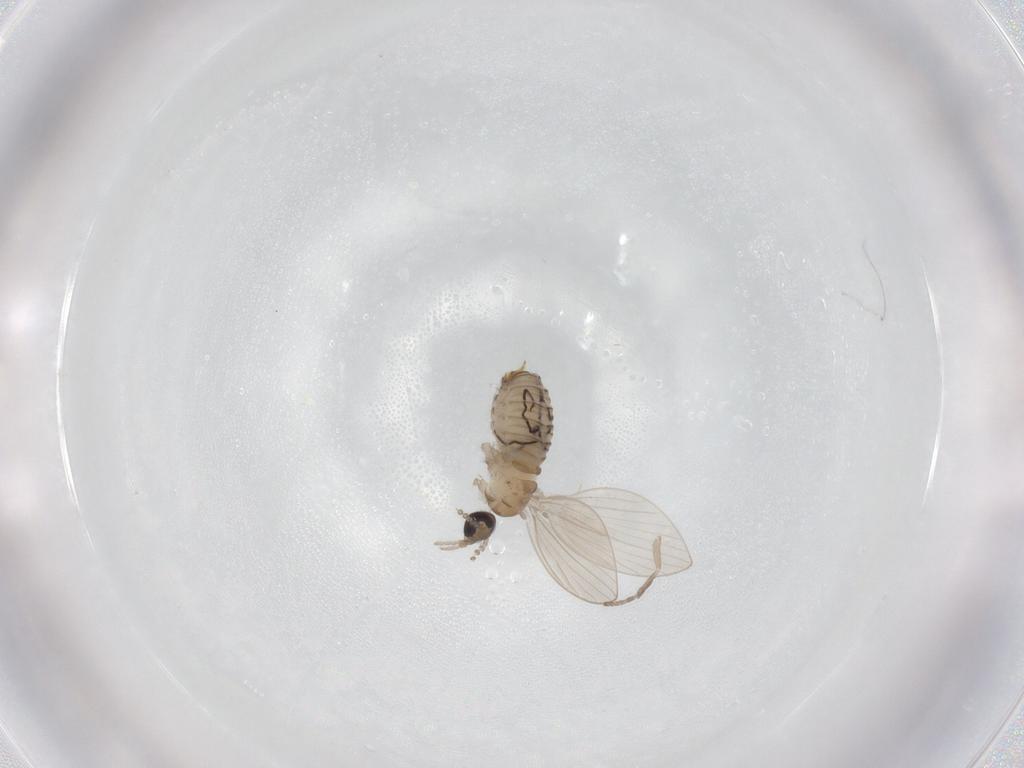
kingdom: Animalia
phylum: Arthropoda
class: Insecta
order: Diptera
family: Psychodidae
